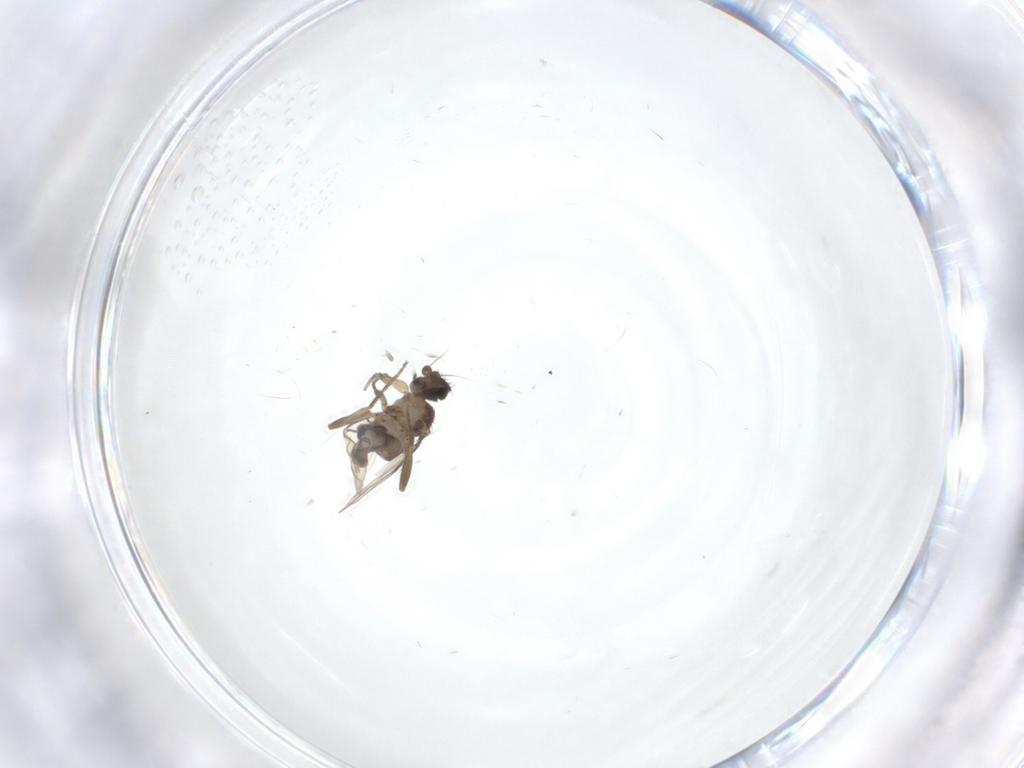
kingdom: Animalia
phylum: Arthropoda
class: Insecta
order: Diptera
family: Phoridae
